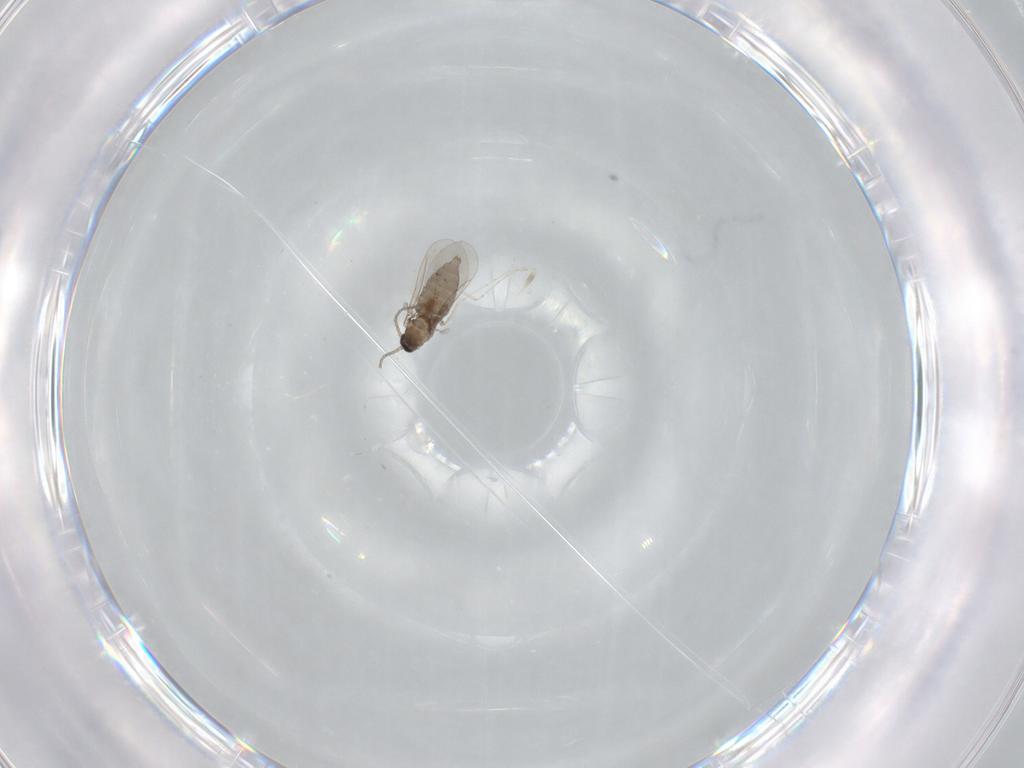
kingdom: Animalia
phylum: Arthropoda
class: Insecta
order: Diptera
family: Cecidomyiidae
